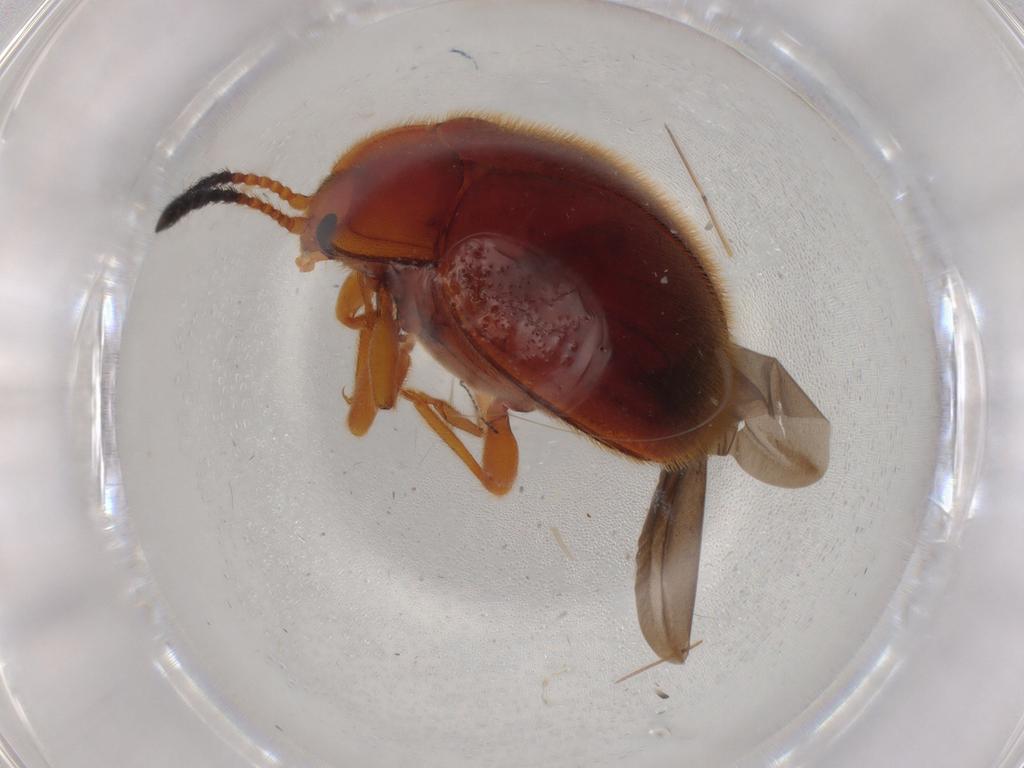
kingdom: Animalia
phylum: Arthropoda
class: Insecta
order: Coleoptera
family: Endomychidae
